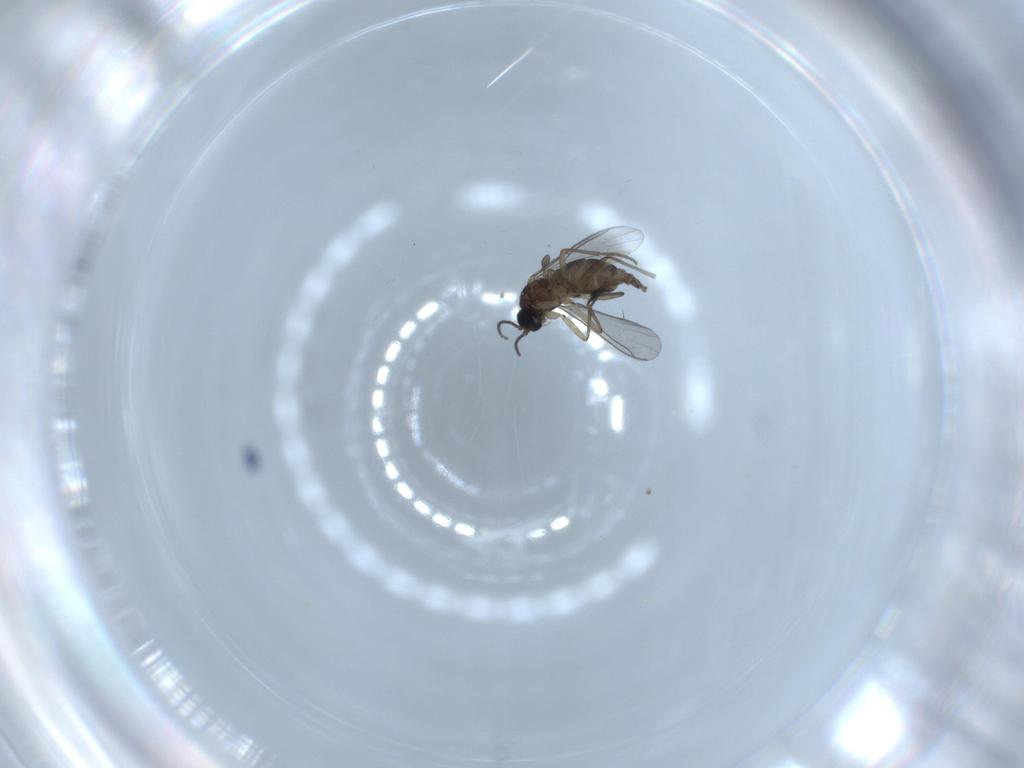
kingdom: Animalia
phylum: Arthropoda
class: Insecta
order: Diptera
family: Sciaridae
